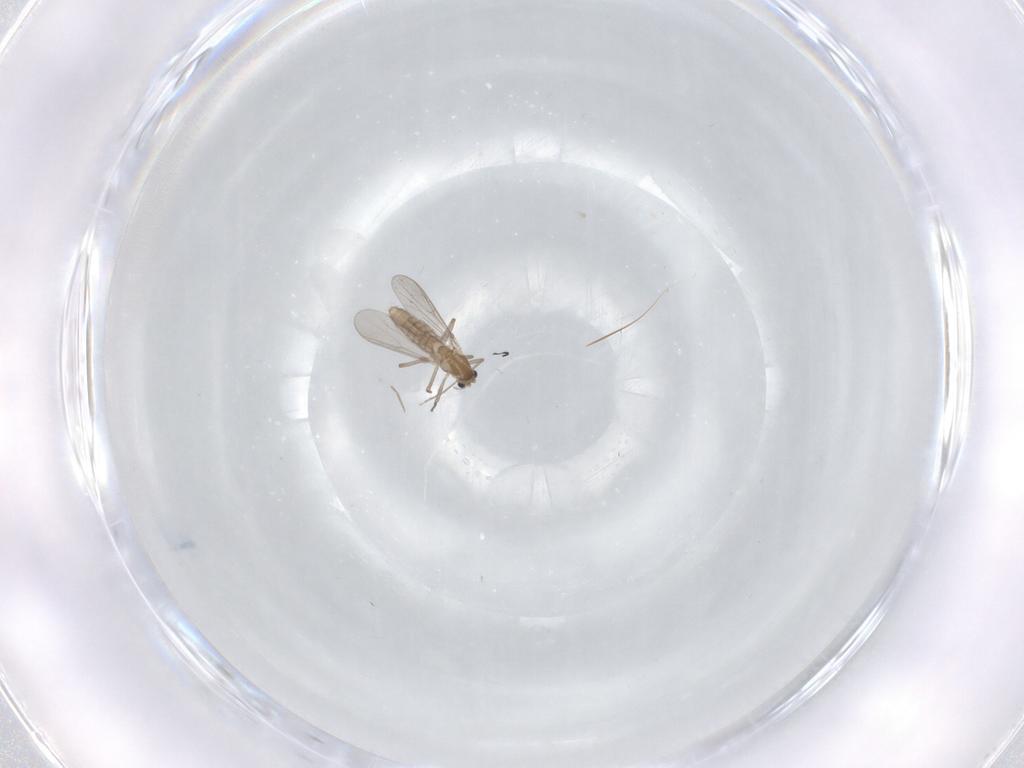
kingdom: Animalia
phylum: Arthropoda
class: Insecta
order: Diptera
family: Chironomidae
